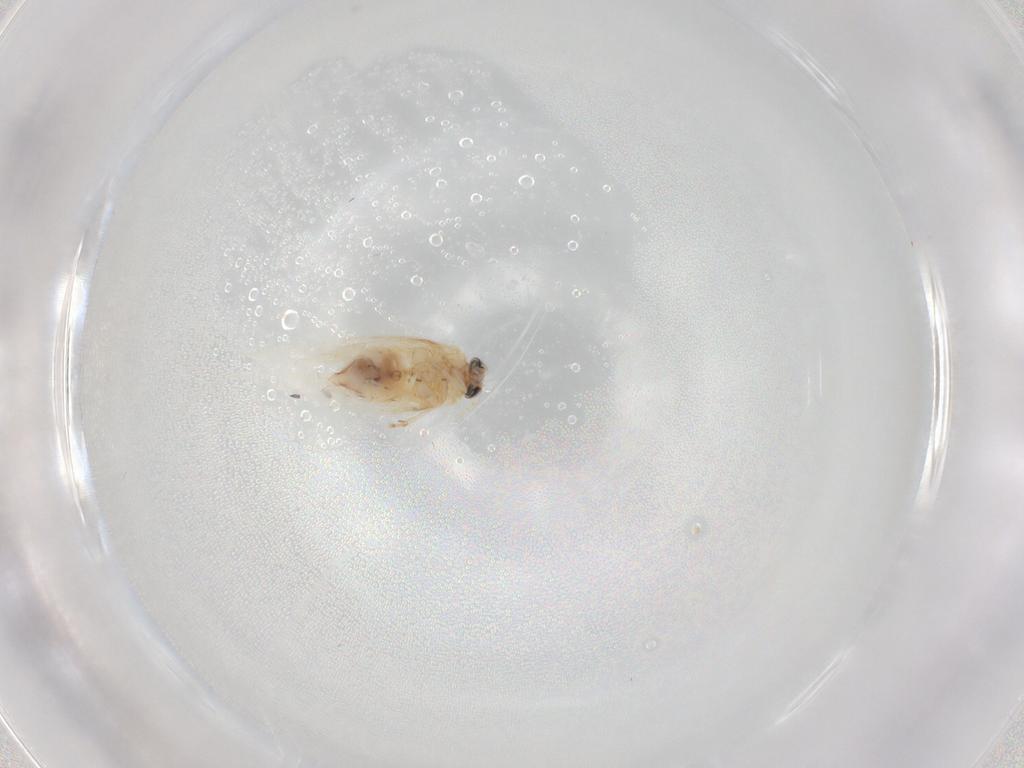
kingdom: Animalia
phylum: Arthropoda
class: Insecta
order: Lepidoptera
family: Nepticulidae
